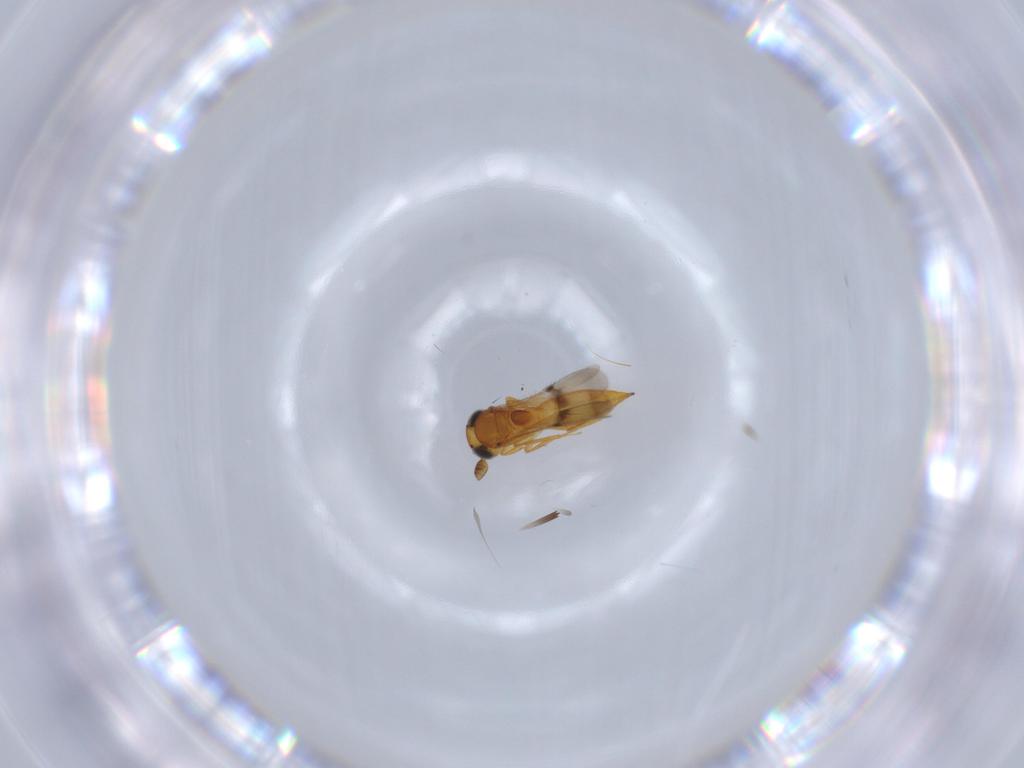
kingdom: Animalia
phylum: Arthropoda
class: Insecta
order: Hymenoptera
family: Scelionidae
